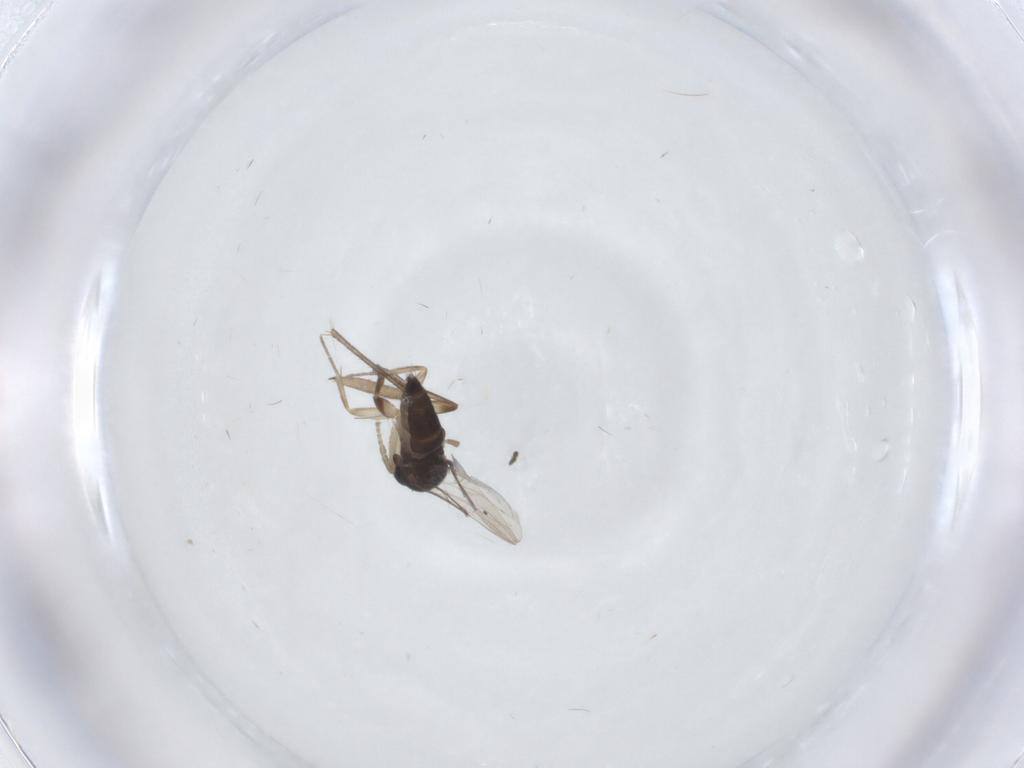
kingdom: Animalia
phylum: Arthropoda
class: Insecta
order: Diptera
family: Phoridae
